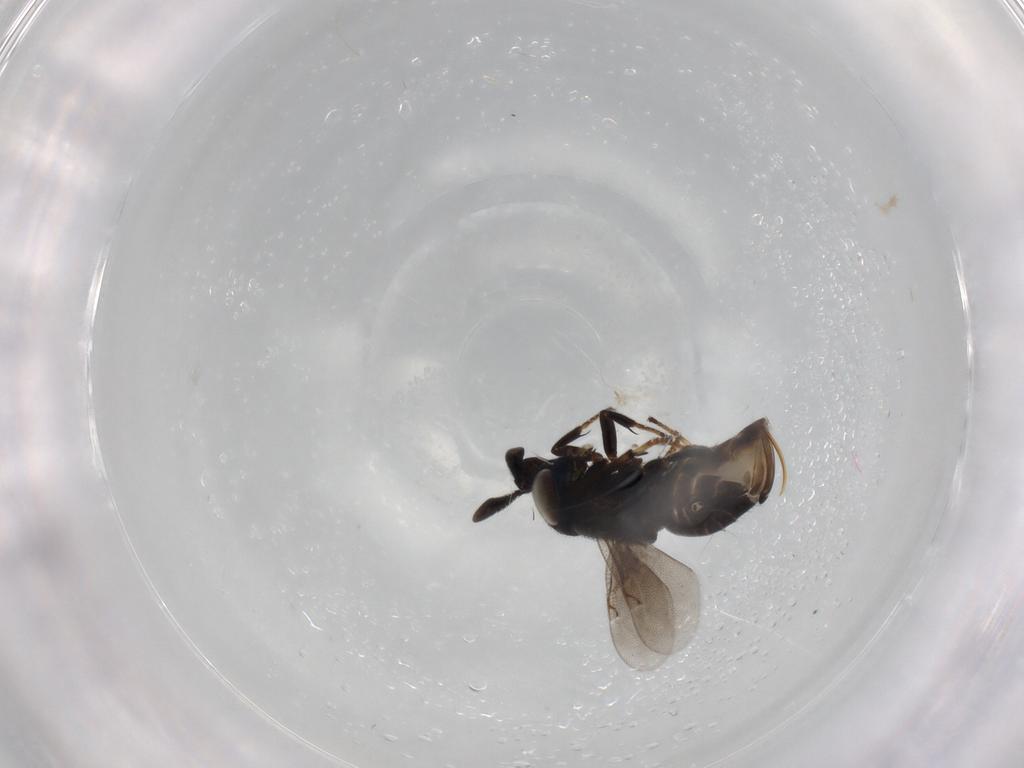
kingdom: Animalia
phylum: Arthropoda
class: Insecta
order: Hymenoptera
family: Encyrtidae
